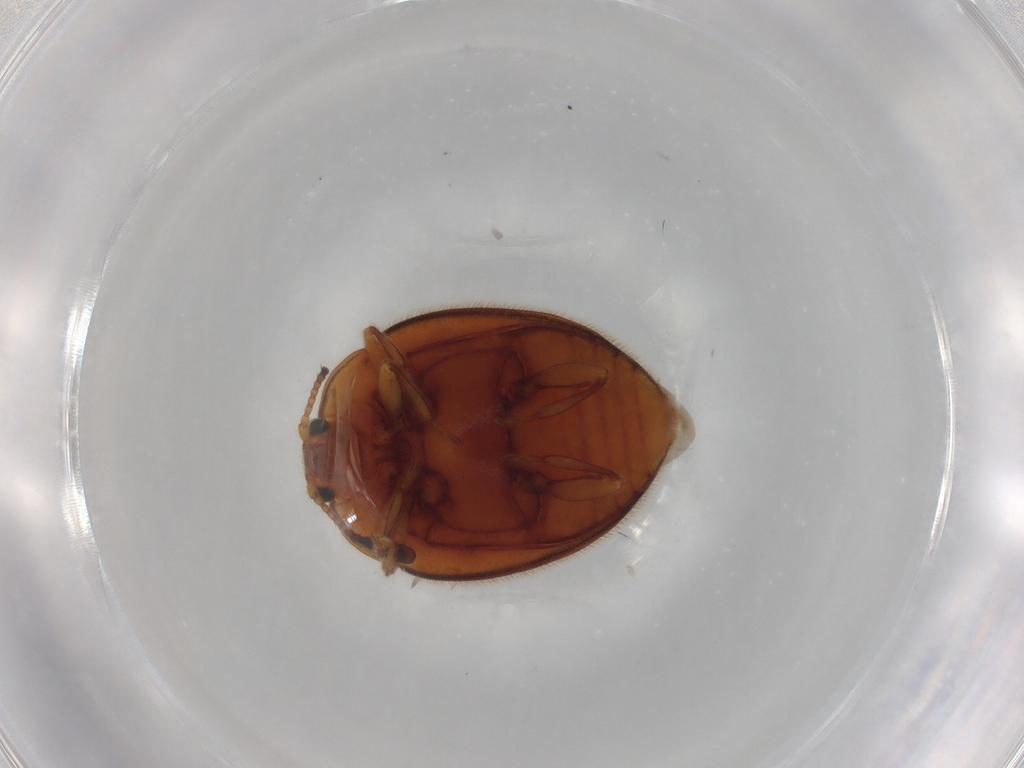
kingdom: Animalia
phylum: Arthropoda
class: Insecta
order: Coleoptera
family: Endomychidae
